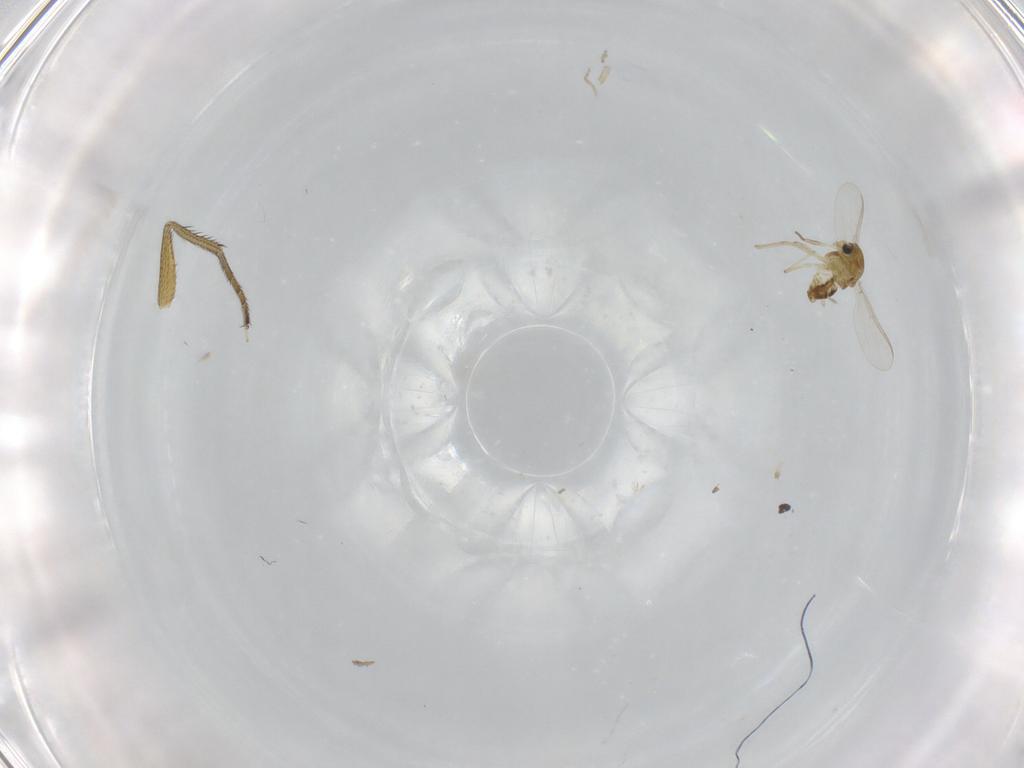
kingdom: Animalia
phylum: Arthropoda
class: Insecta
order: Diptera
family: Chironomidae
